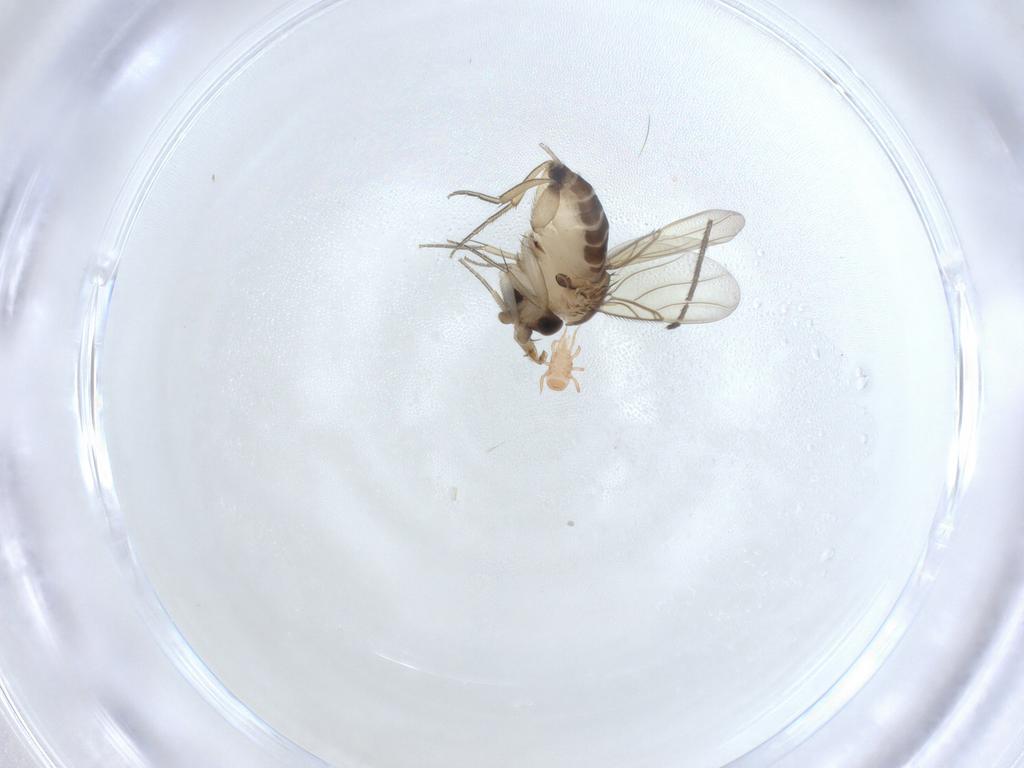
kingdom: Animalia
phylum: Arthropoda
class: Insecta
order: Diptera
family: Phoridae
